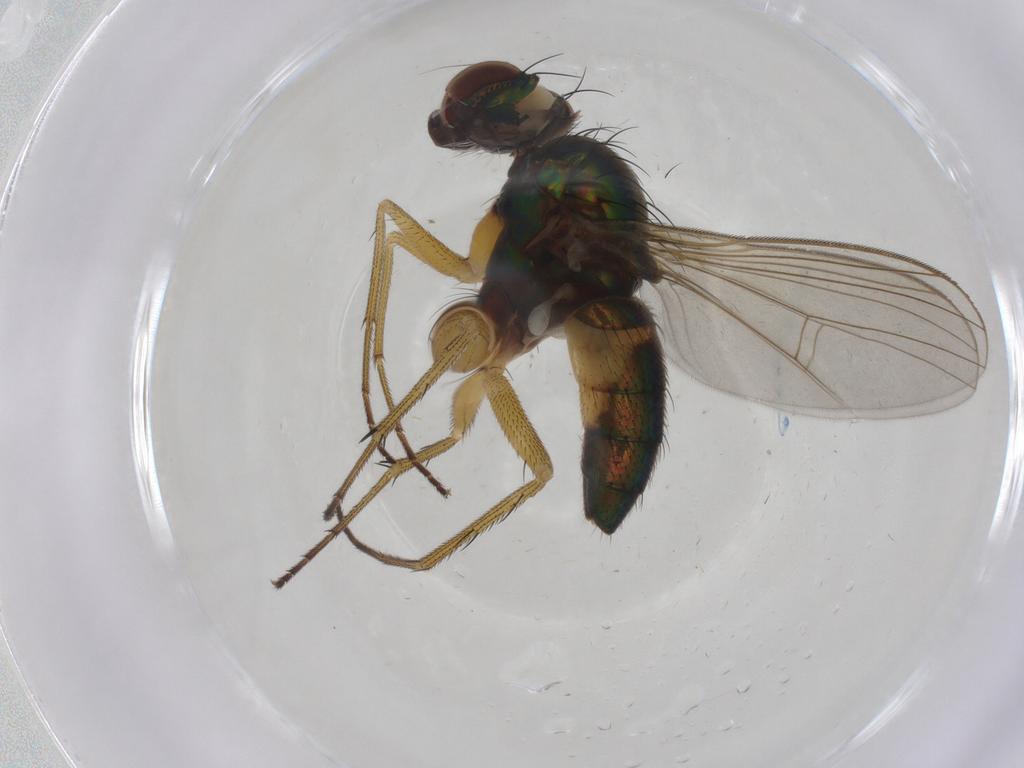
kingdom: Animalia
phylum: Arthropoda
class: Insecta
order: Diptera
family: Ceratopogonidae
